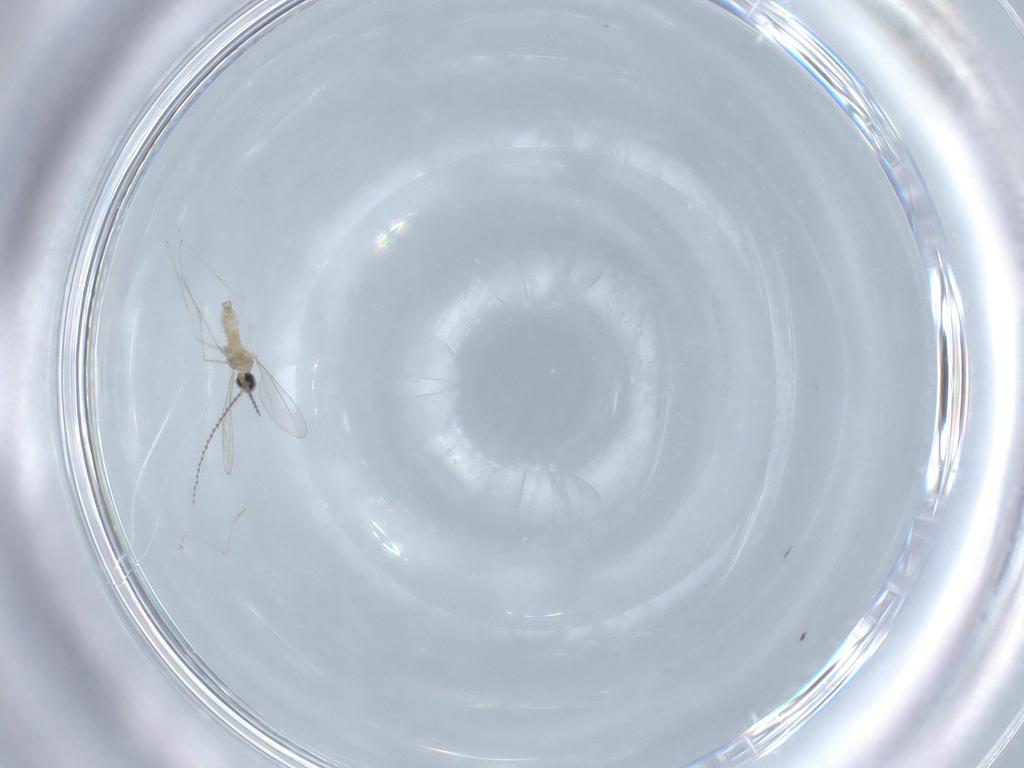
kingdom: Animalia
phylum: Arthropoda
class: Insecta
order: Diptera
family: Cecidomyiidae
